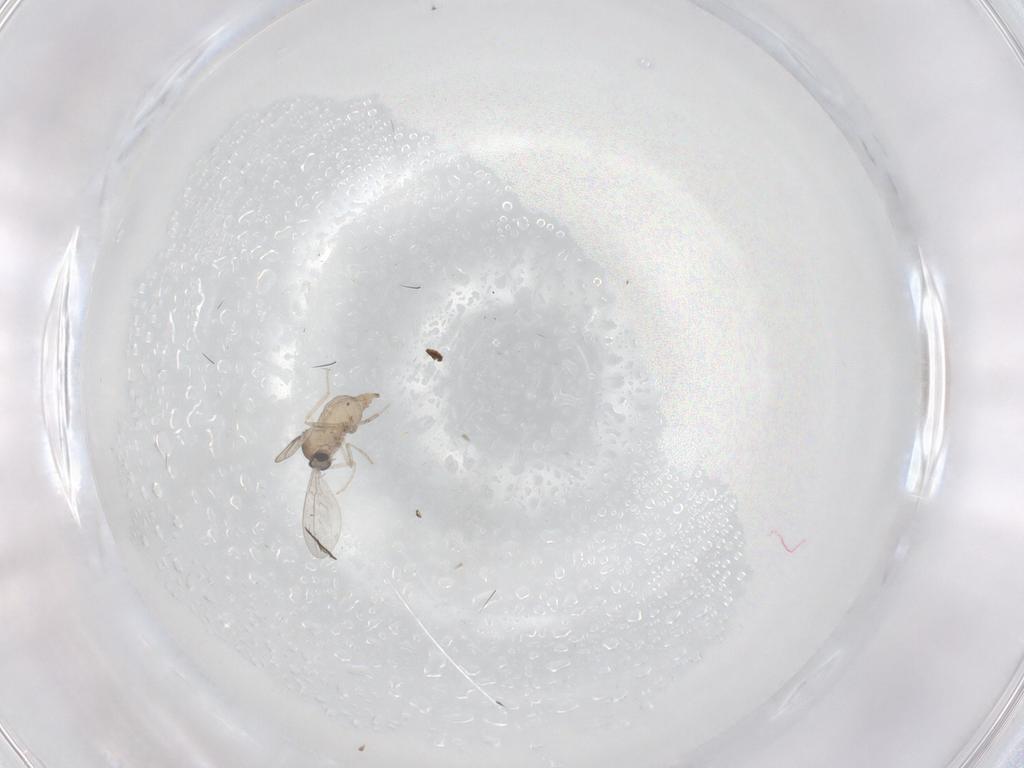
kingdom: Animalia
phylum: Arthropoda
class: Insecta
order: Diptera
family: Cecidomyiidae
